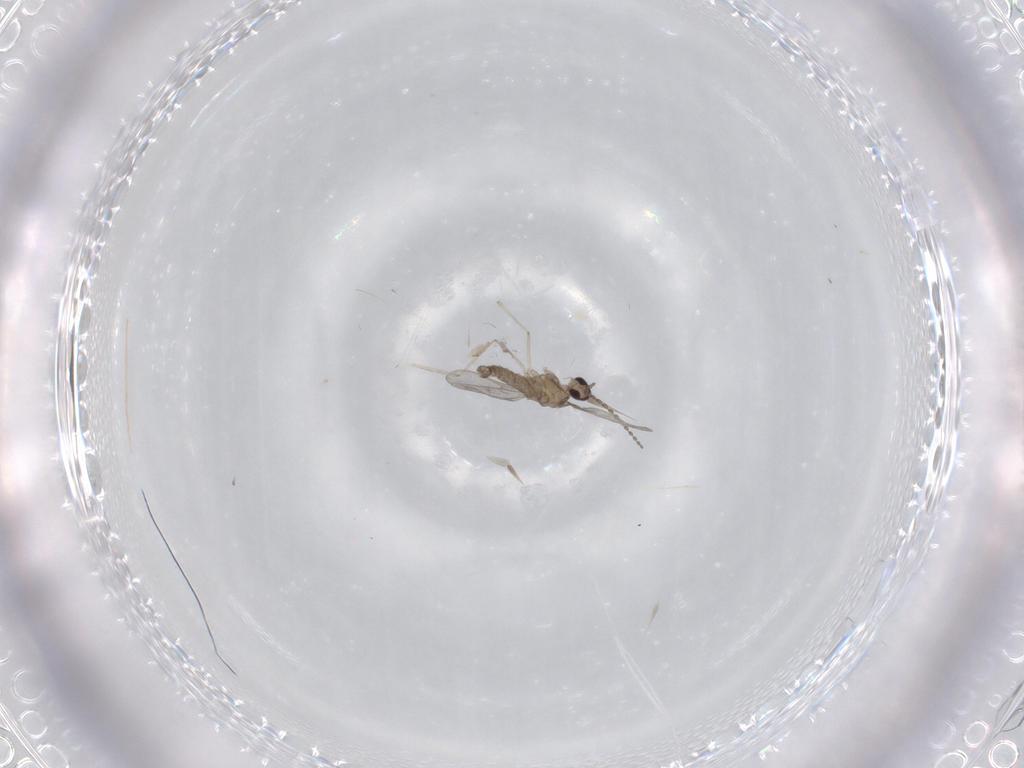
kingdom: Animalia
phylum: Arthropoda
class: Insecta
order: Diptera
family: Cecidomyiidae
